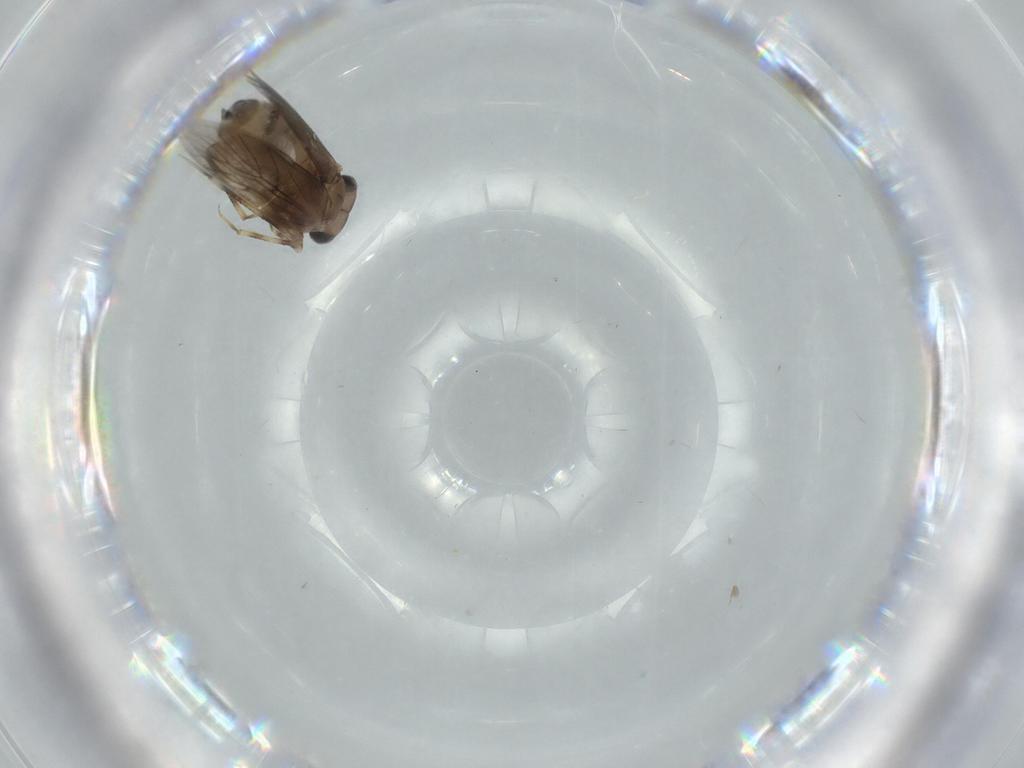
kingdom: Animalia
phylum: Arthropoda
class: Insecta
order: Psocodea
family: Lepidopsocidae
